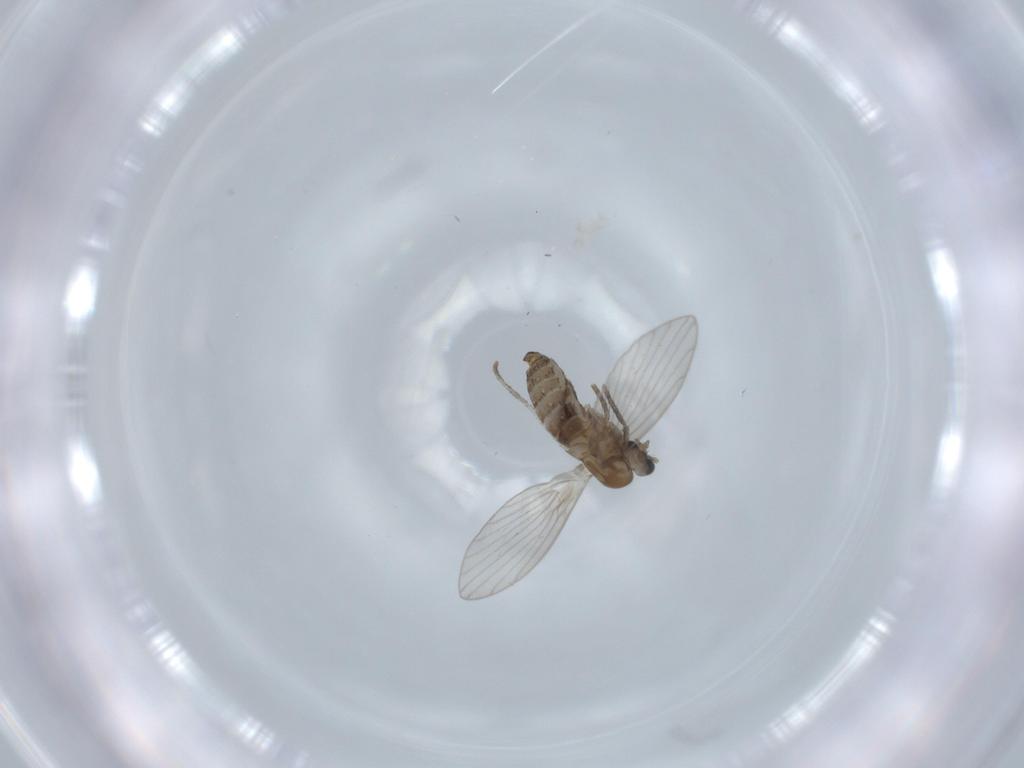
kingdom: Animalia
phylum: Arthropoda
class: Insecta
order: Diptera
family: Psychodidae
